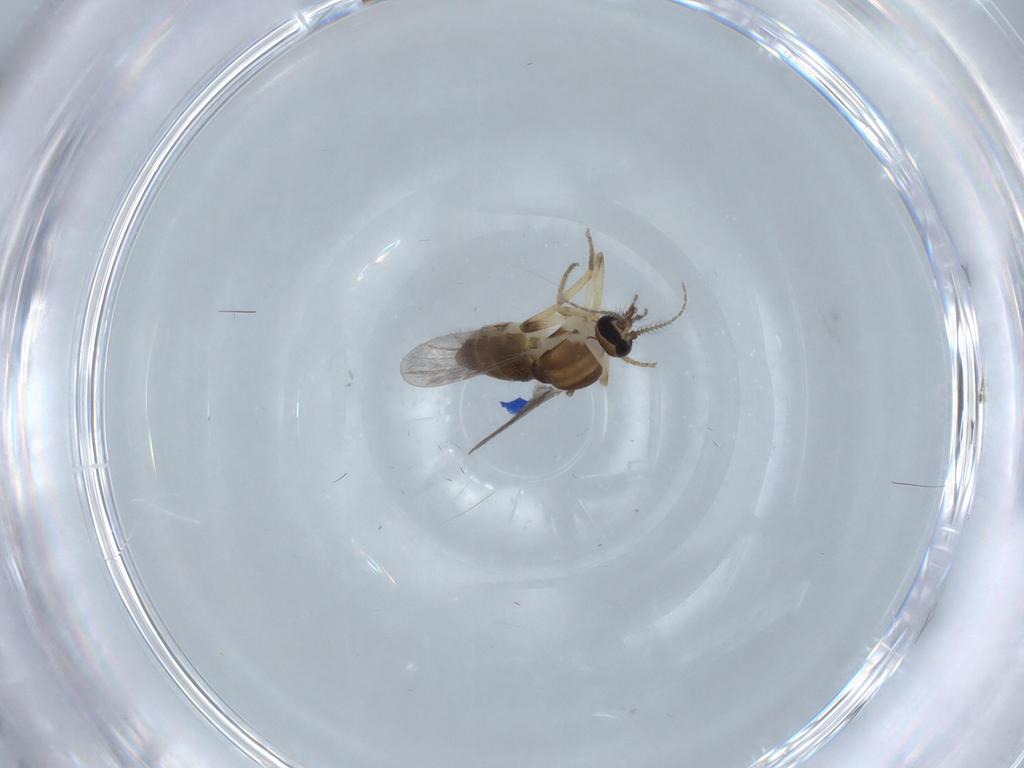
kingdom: Animalia
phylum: Arthropoda
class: Insecta
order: Diptera
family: Ceratopogonidae
